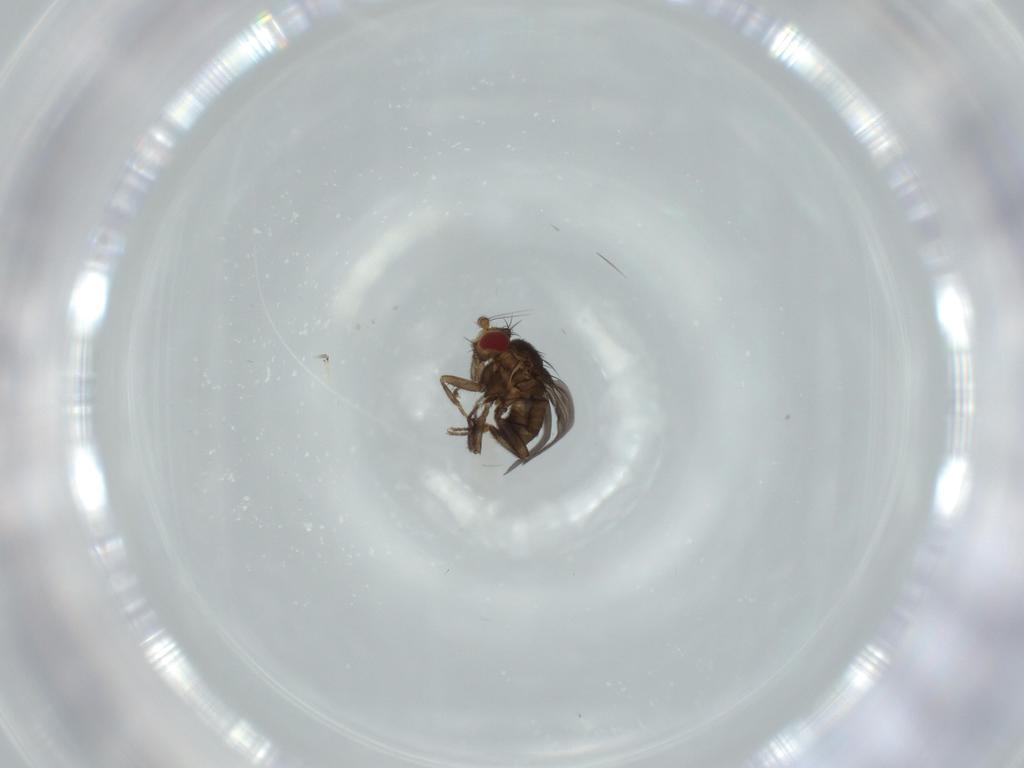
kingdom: Animalia
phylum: Arthropoda
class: Insecta
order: Diptera
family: Sphaeroceridae
